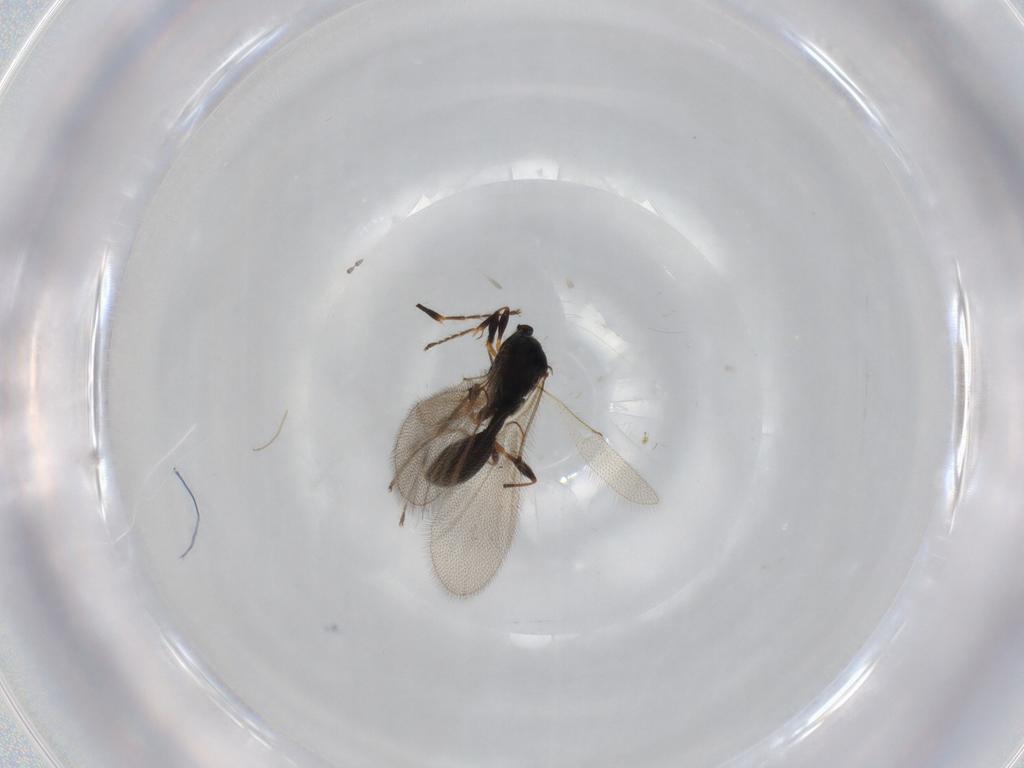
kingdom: Animalia
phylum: Arthropoda
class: Insecta
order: Hymenoptera
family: Diapriidae
